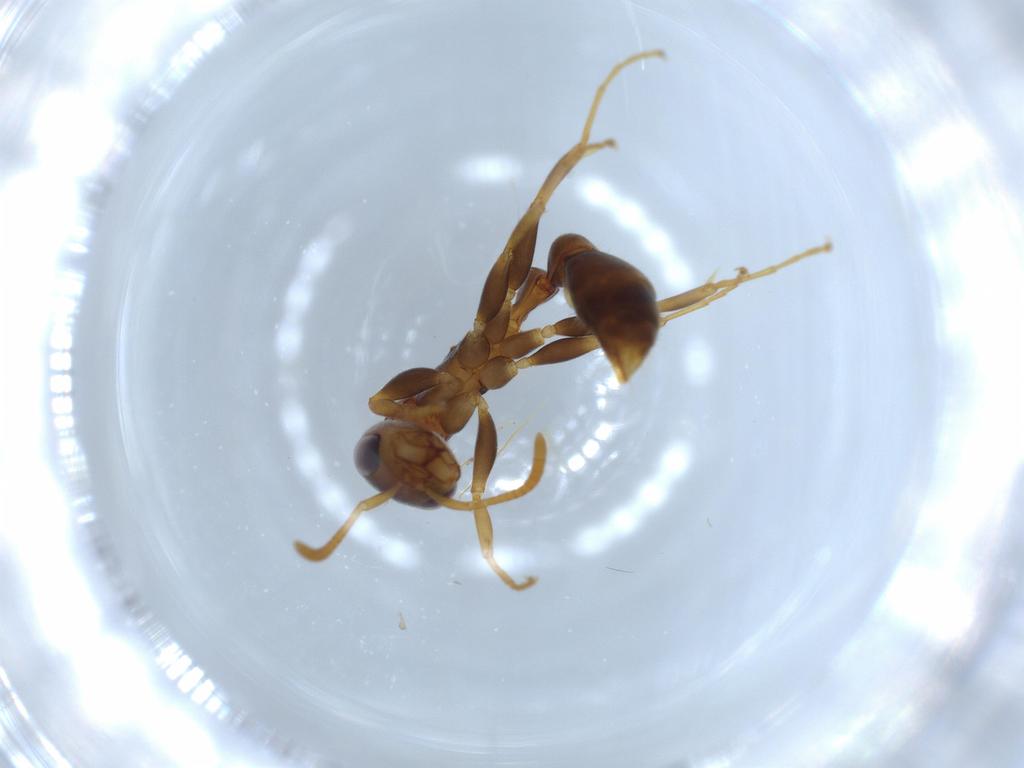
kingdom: Animalia
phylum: Arthropoda
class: Insecta
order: Hymenoptera
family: Formicidae
